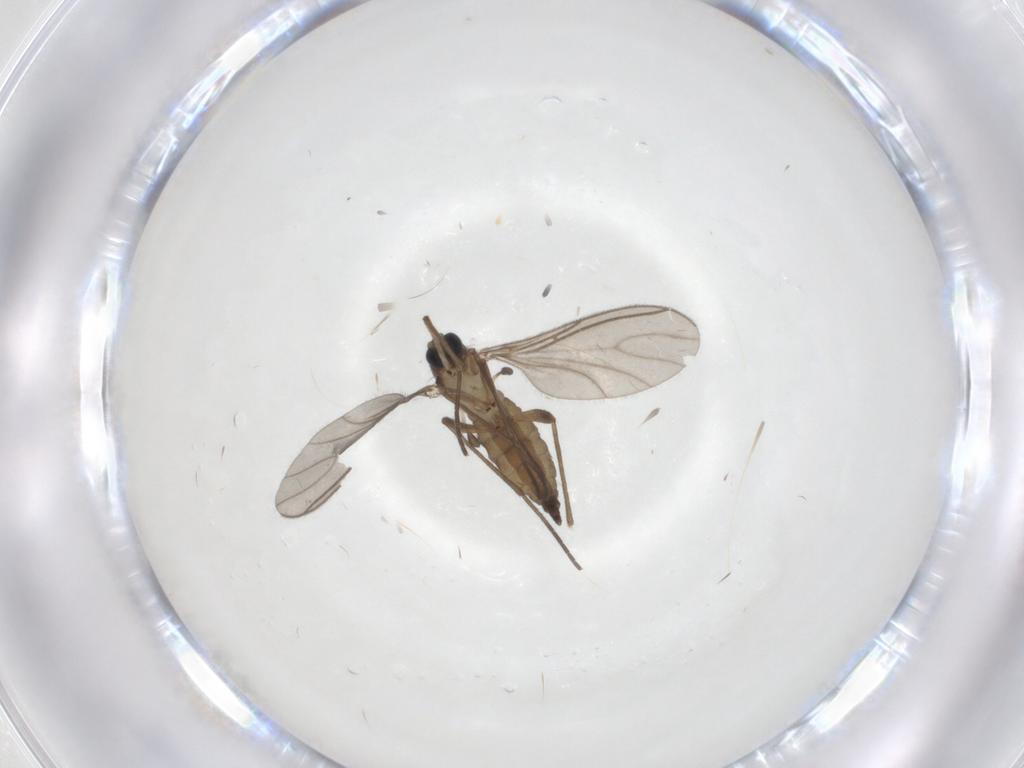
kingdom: Animalia
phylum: Arthropoda
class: Insecta
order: Diptera
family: Sciaridae
